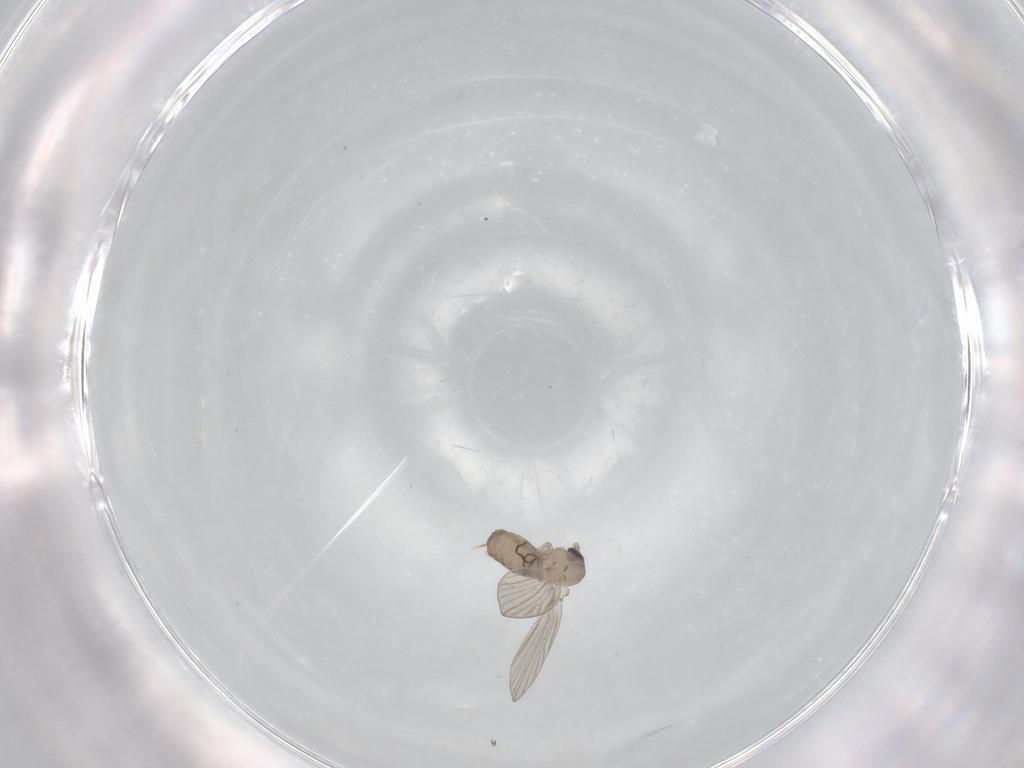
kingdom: Animalia
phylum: Arthropoda
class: Insecta
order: Diptera
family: Psychodidae
